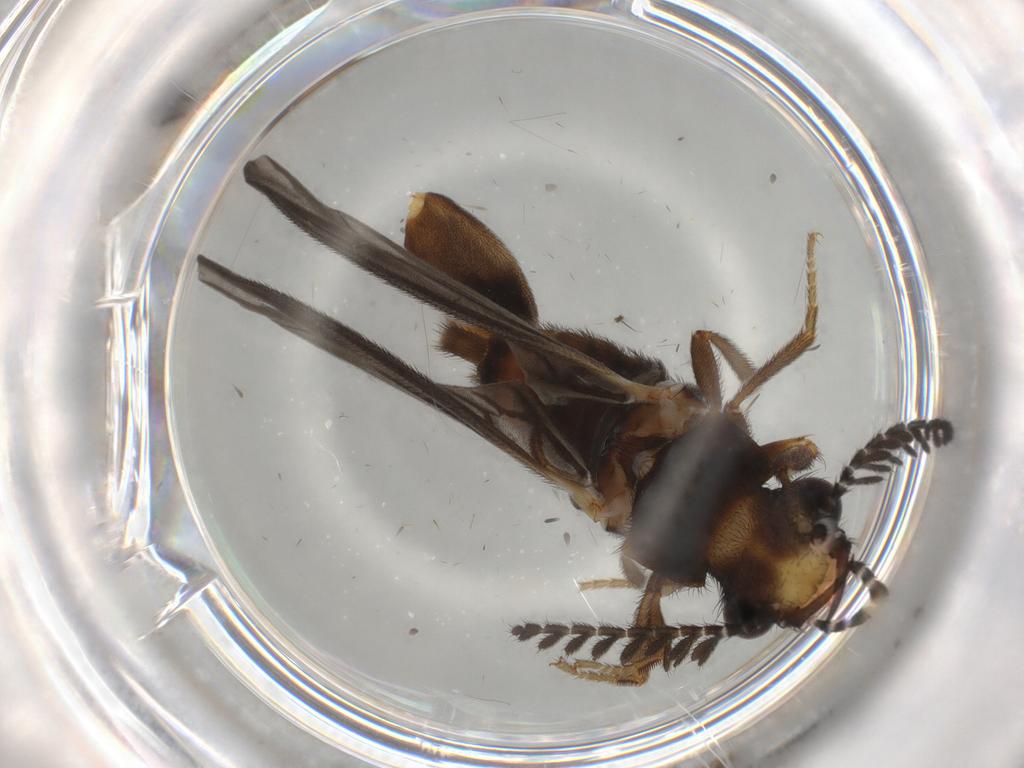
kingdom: Animalia
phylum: Arthropoda
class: Insecta
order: Coleoptera
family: Phengodidae
